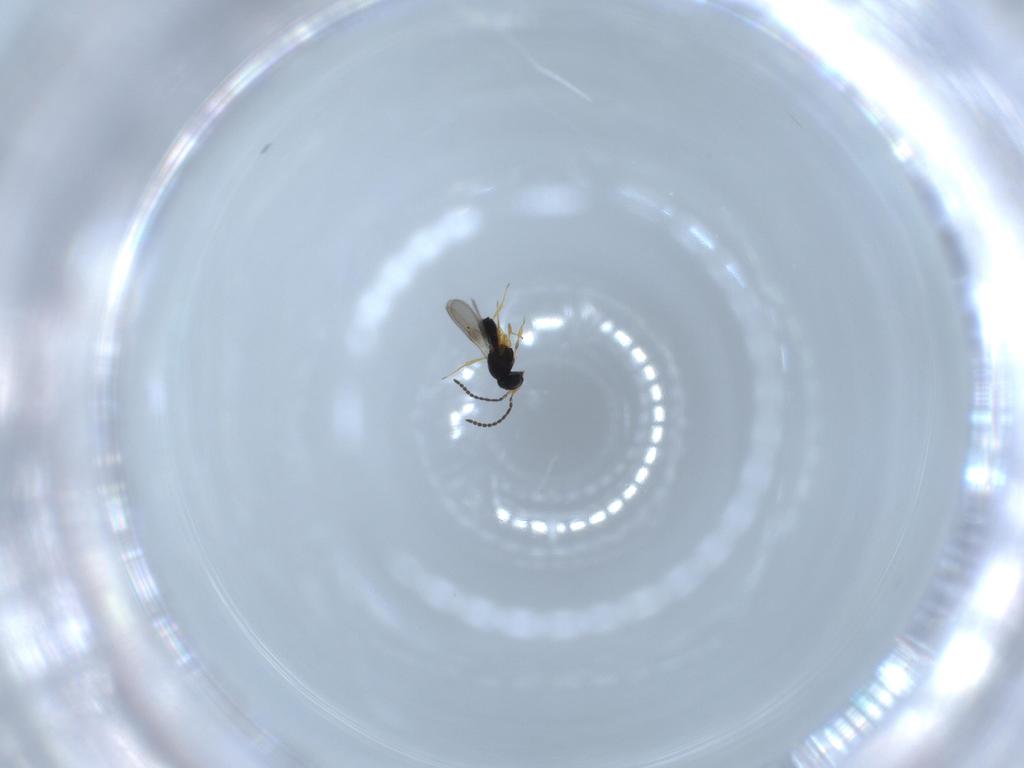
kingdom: Animalia
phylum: Arthropoda
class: Insecta
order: Hymenoptera
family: Scelionidae
